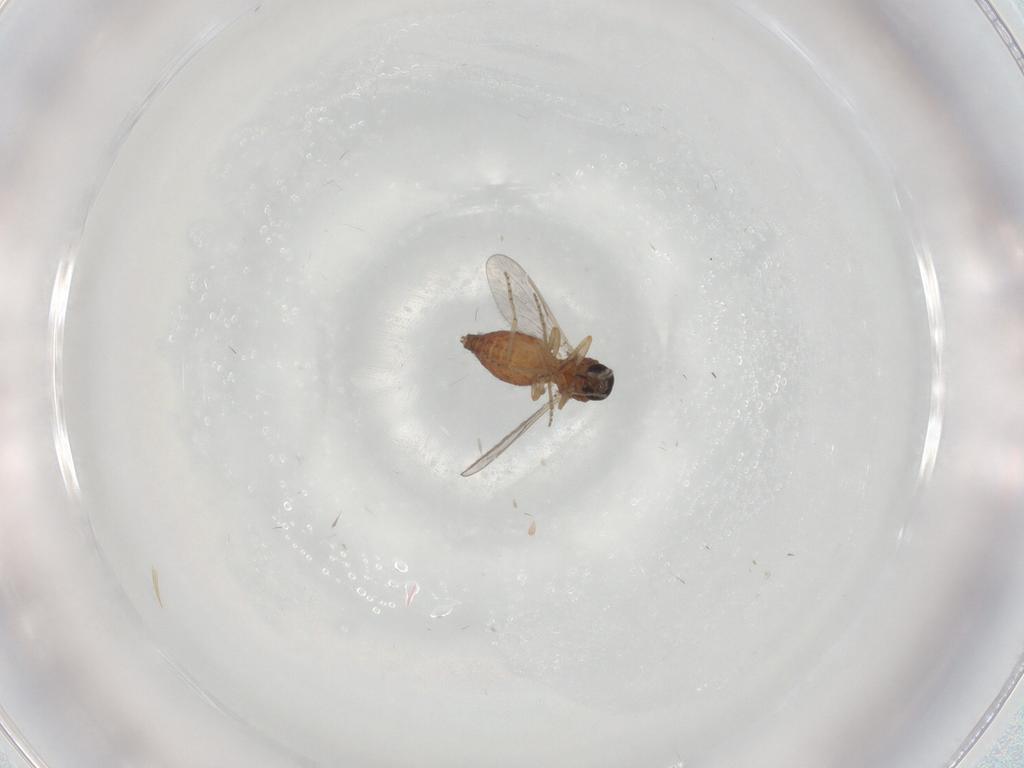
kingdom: Animalia
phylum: Arthropoda
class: Insecta
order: Diptera
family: Ceratopogonidae
